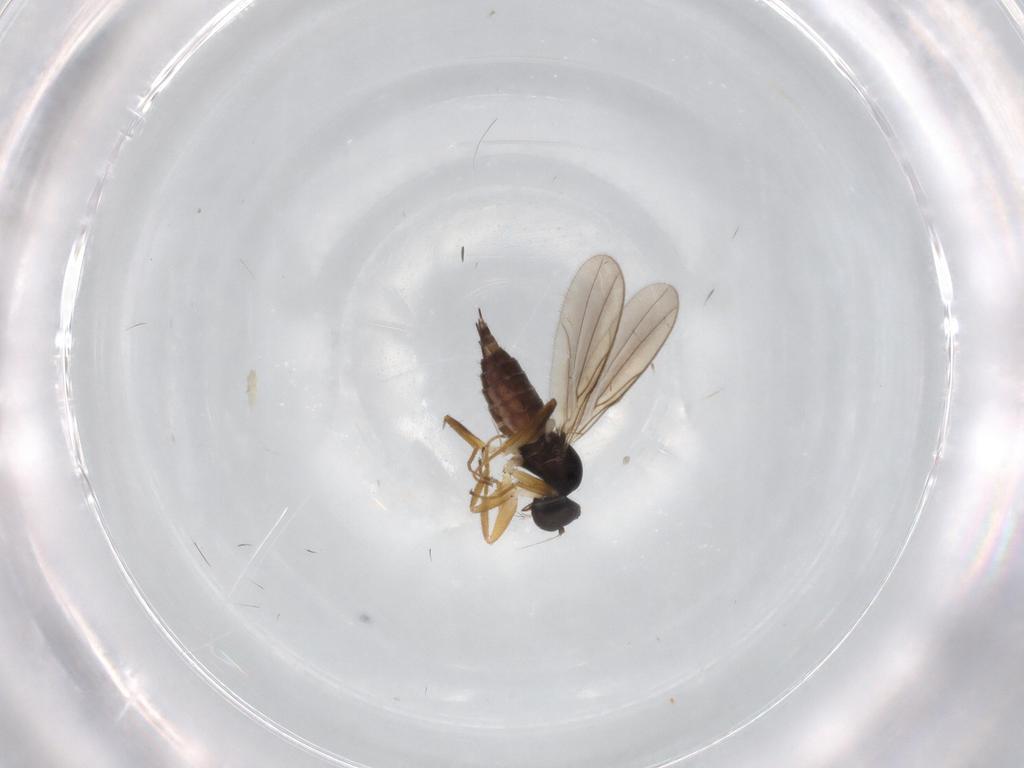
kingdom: Animalia
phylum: Arthropoda
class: Insecta
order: Diptera
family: Hybotidae
